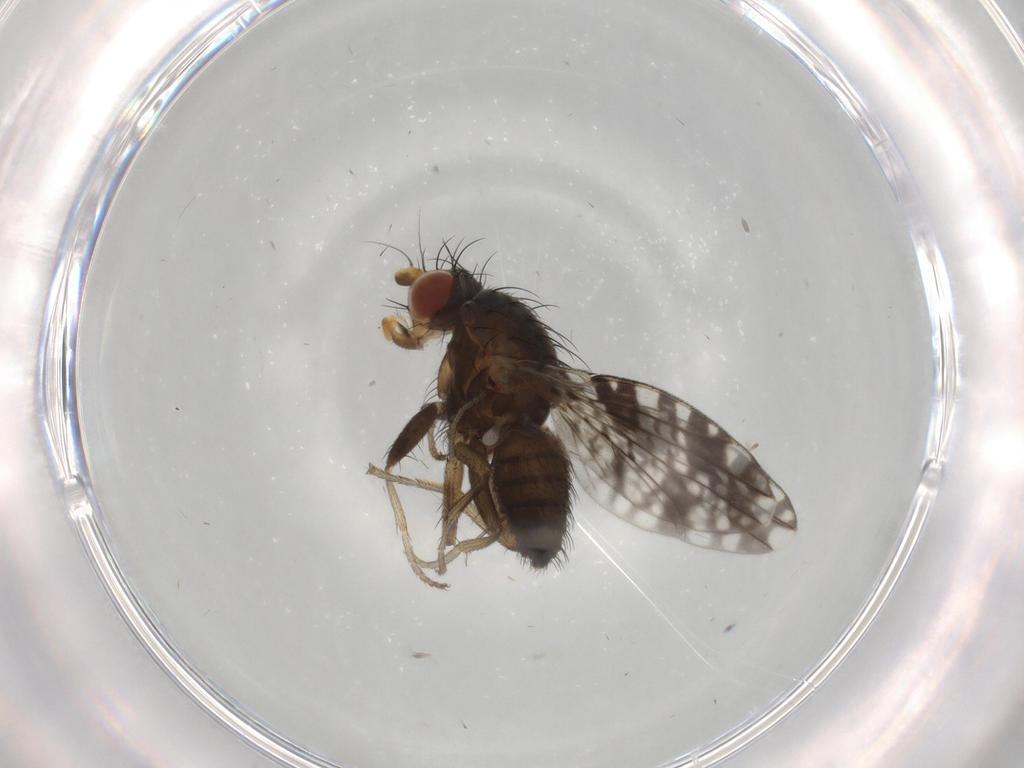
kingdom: Animalia
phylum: Arthropoda
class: Insecta
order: Diptera
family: Tephritidae
